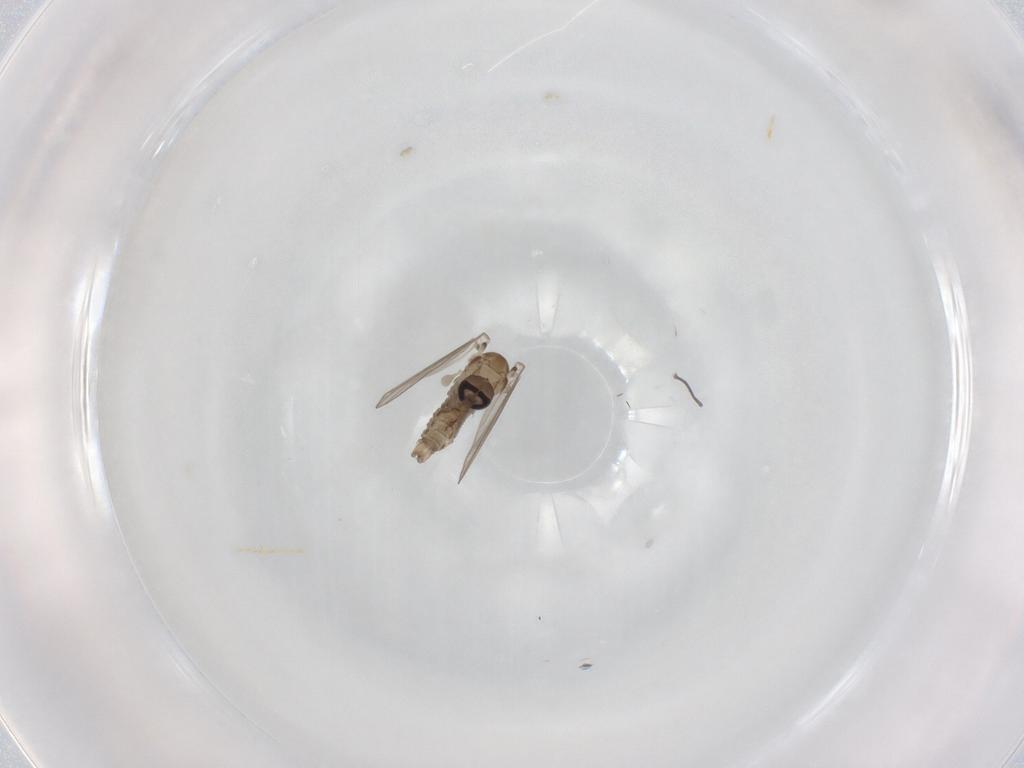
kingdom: Animalia
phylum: Arthropoda
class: Insecta
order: Diptera
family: Psychodidae
